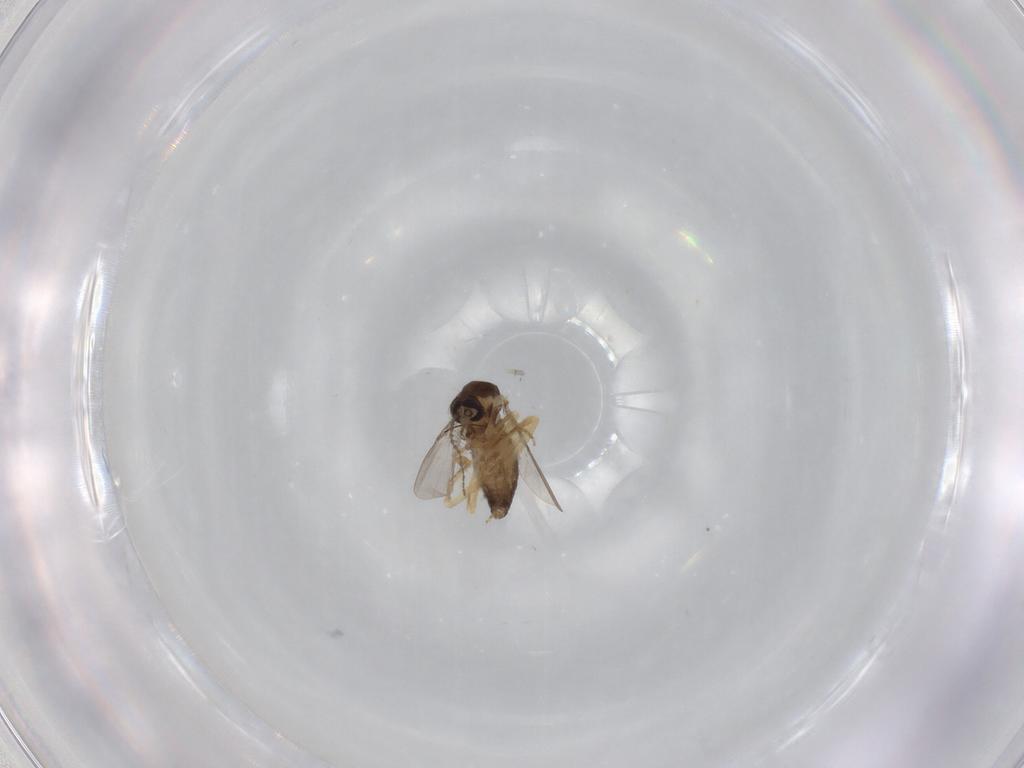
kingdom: Animalia
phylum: Arthropoda
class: Insecta
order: Diptera
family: Ceratopogonidae
